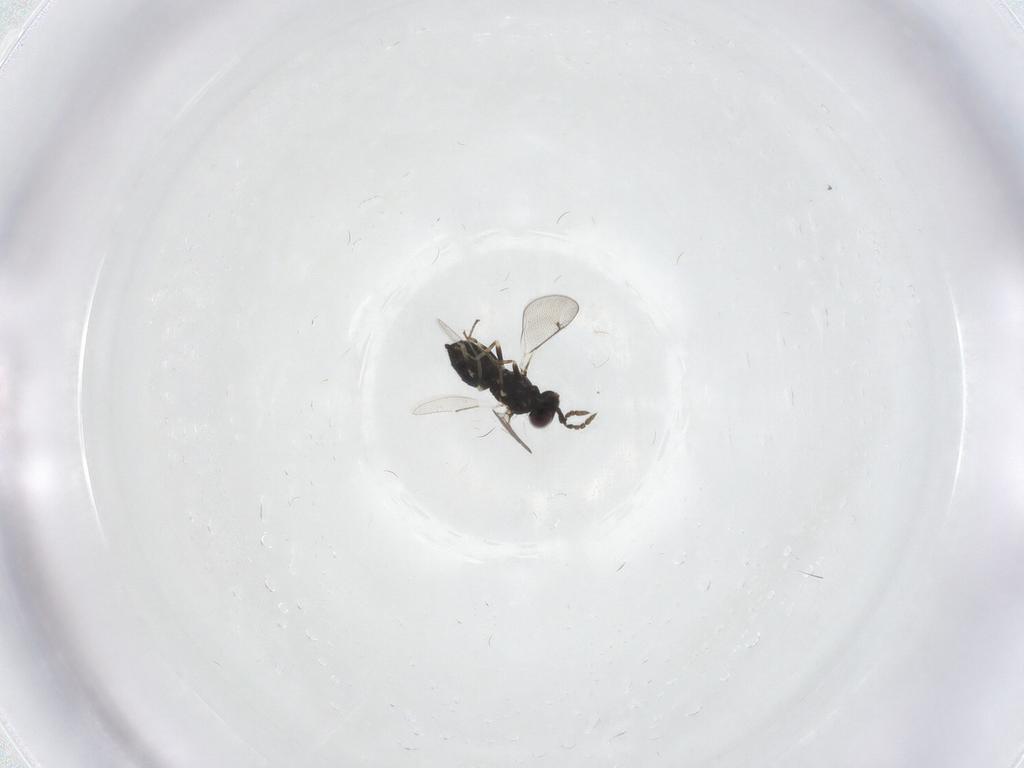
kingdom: Animalia
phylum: Arthropoda
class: Insecta
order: Hymenoptera
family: Eulophidae
